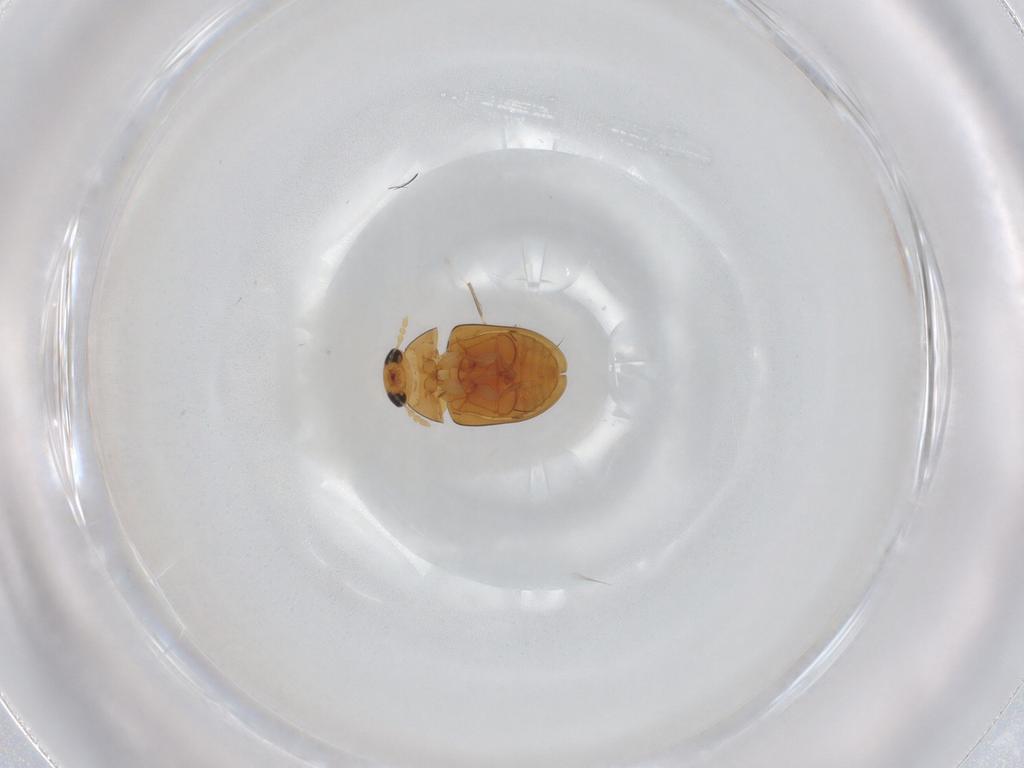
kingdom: Animalia
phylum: Arthropoda
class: Insecta
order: Coleoptera
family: Phalacridae
